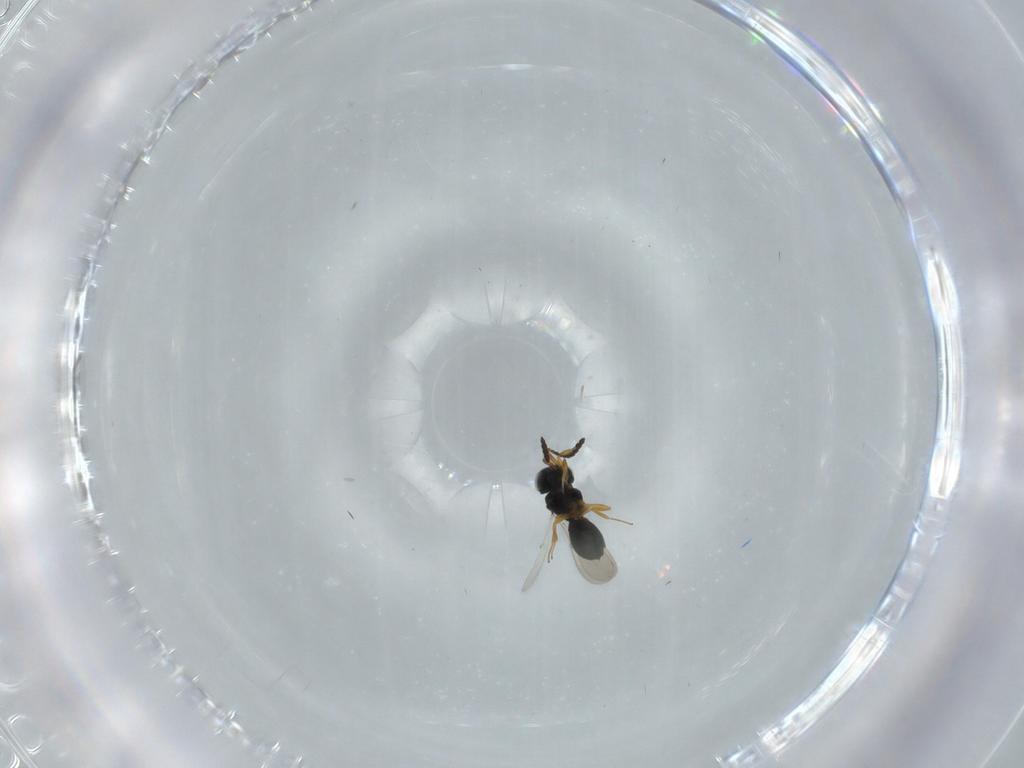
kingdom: Animalia
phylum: Arthropoda
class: Insecta
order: Hymenoptera
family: Scelionidae
